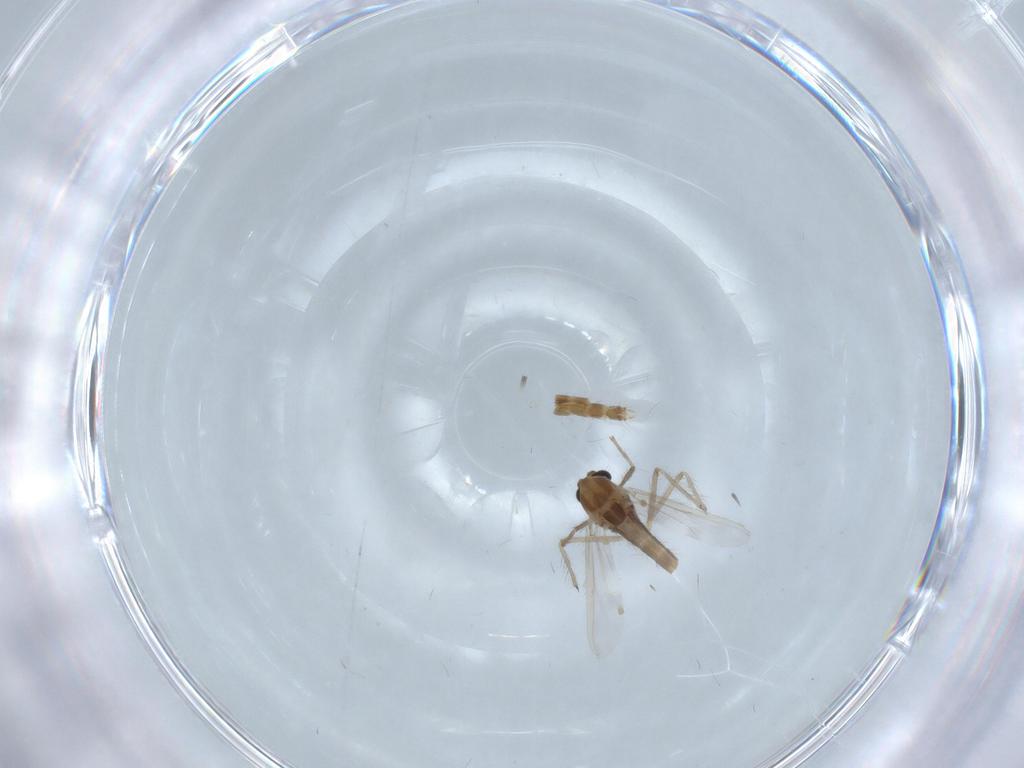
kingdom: Animalia
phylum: Arthropoda
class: Insecta
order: Diptera
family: Chironomidae
